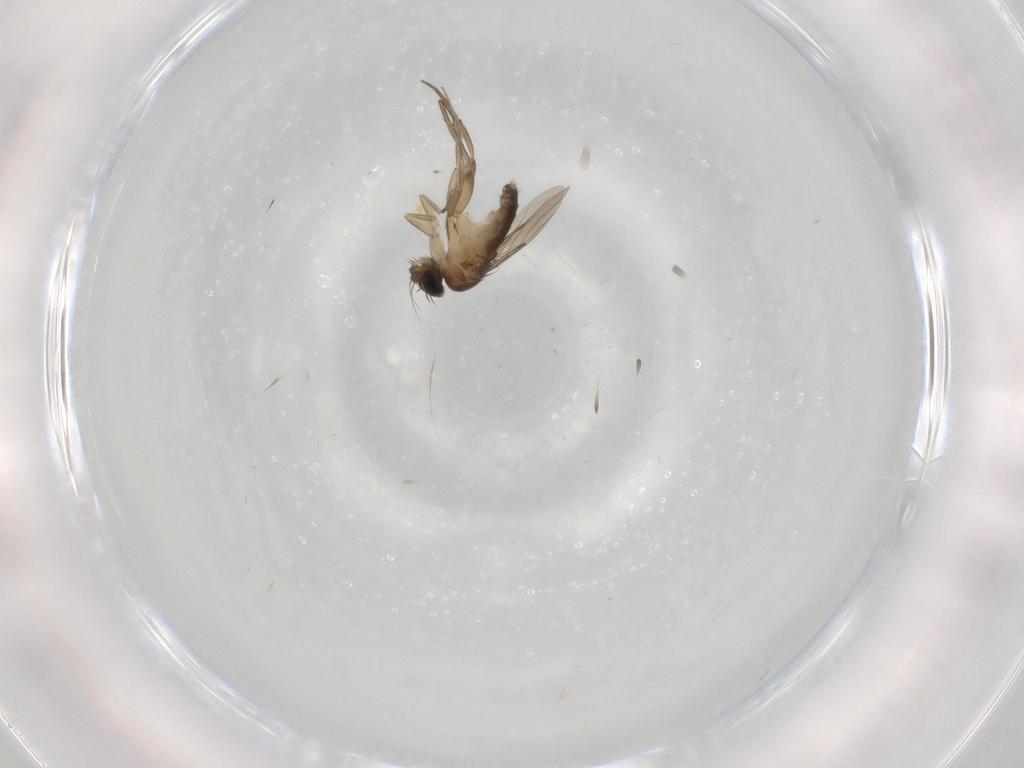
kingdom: Animalia
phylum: Arthropoda
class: Insecta
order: Diptera
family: Phoridae
